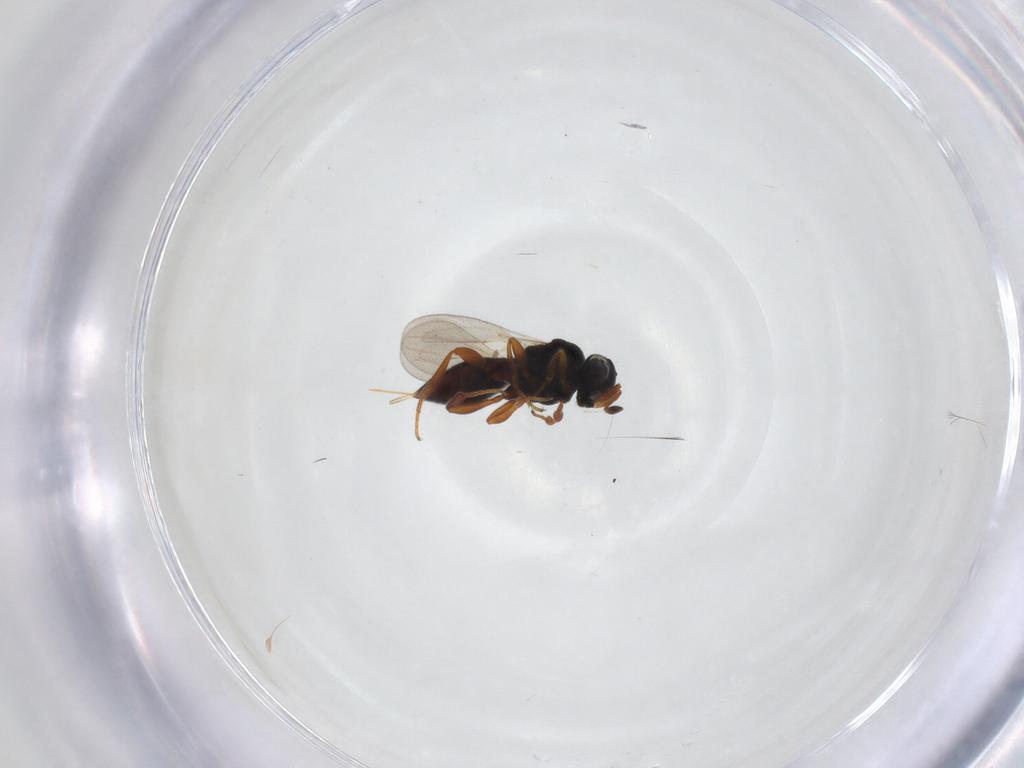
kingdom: Animalia
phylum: Arthropoda
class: Insecta
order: Hymenoptera
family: Platygastridae
